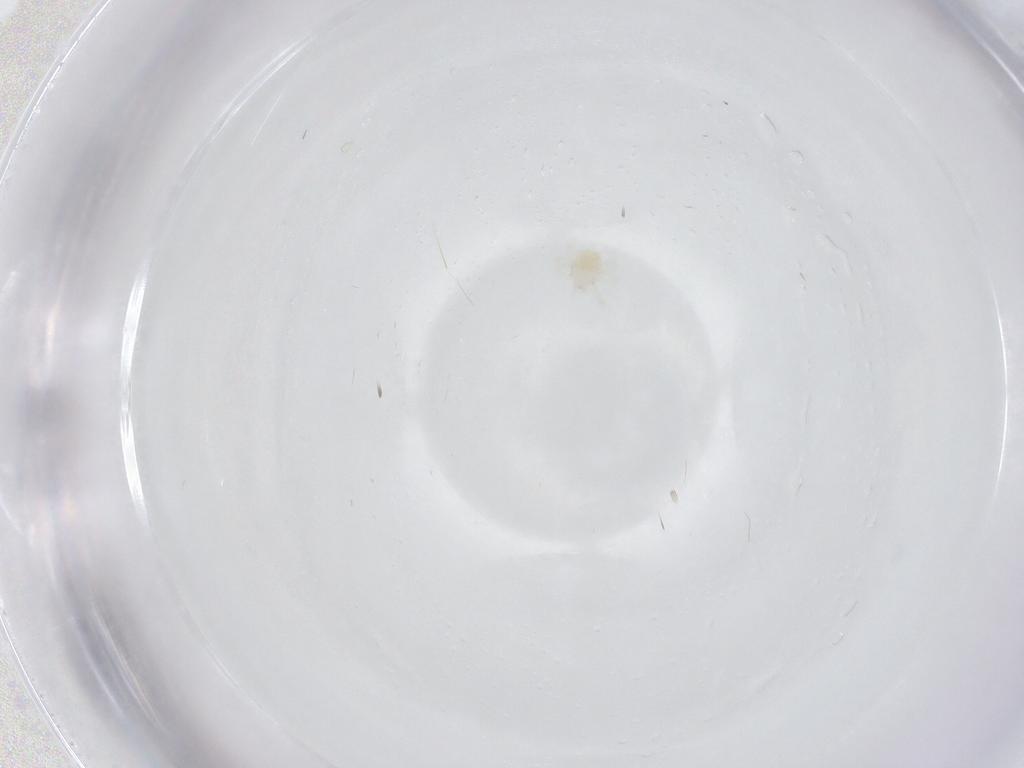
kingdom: Animalia
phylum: Arthropoda
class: Arachnida
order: Trombidiformes
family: Anystidae
